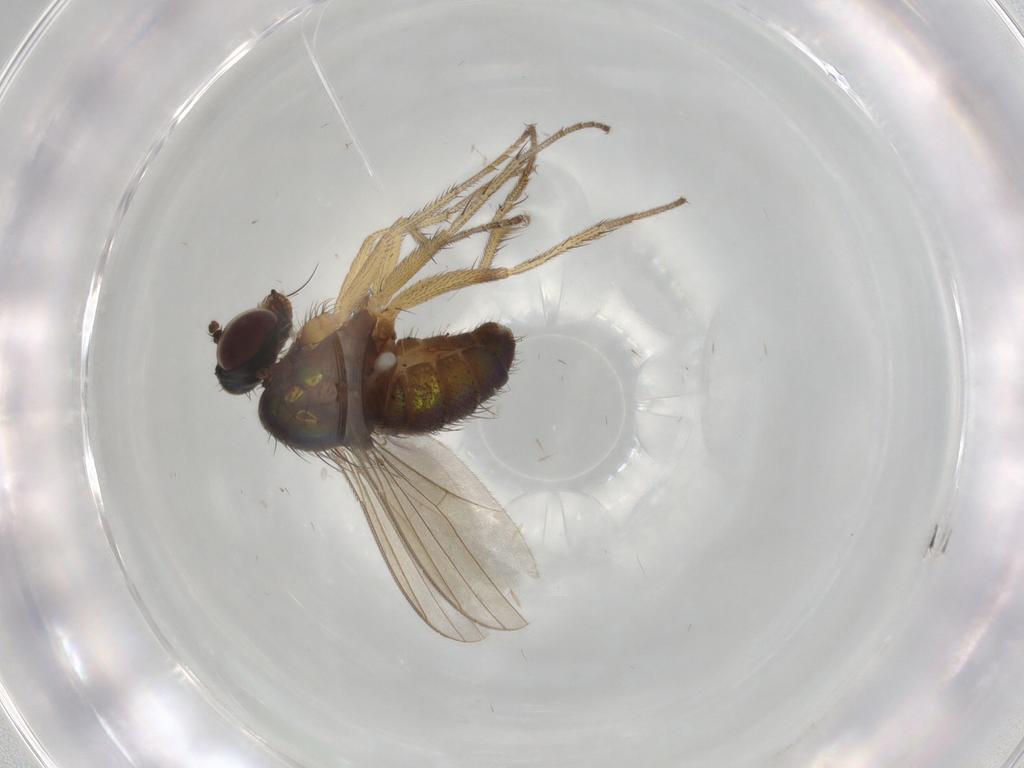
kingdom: Animalia
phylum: Arthropoda
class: Insecta
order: Diptera
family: Dolichopodidae
